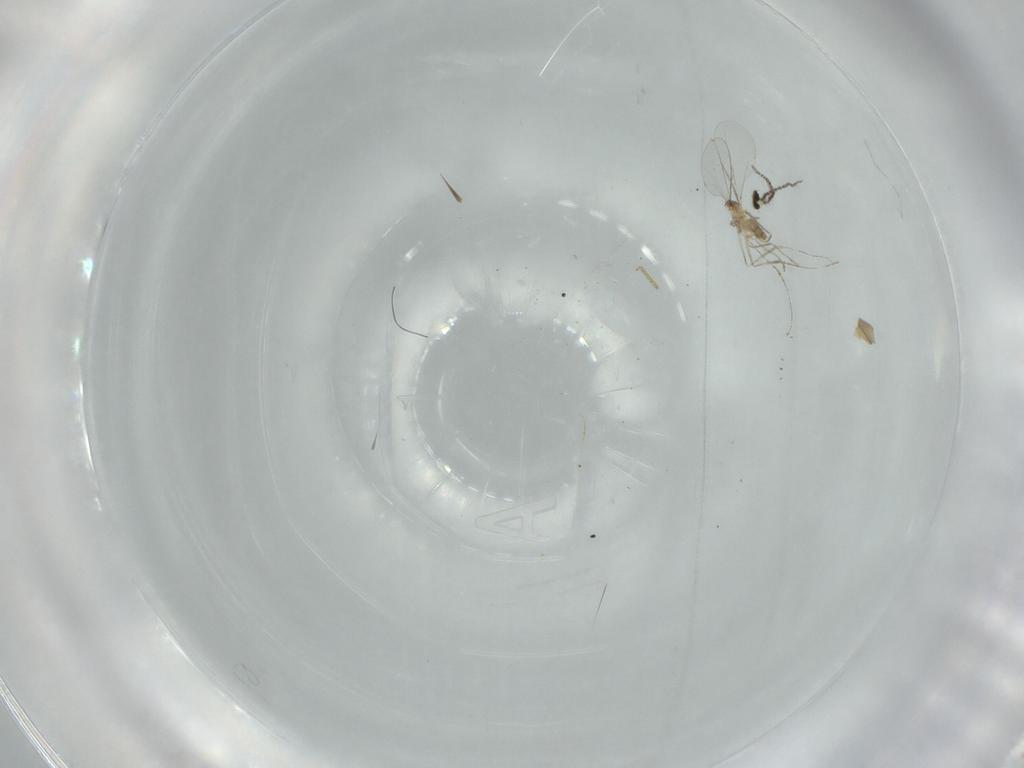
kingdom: Animalia
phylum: Arthropoda
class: Insecta
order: Diptera
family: Cecidomyiidae
